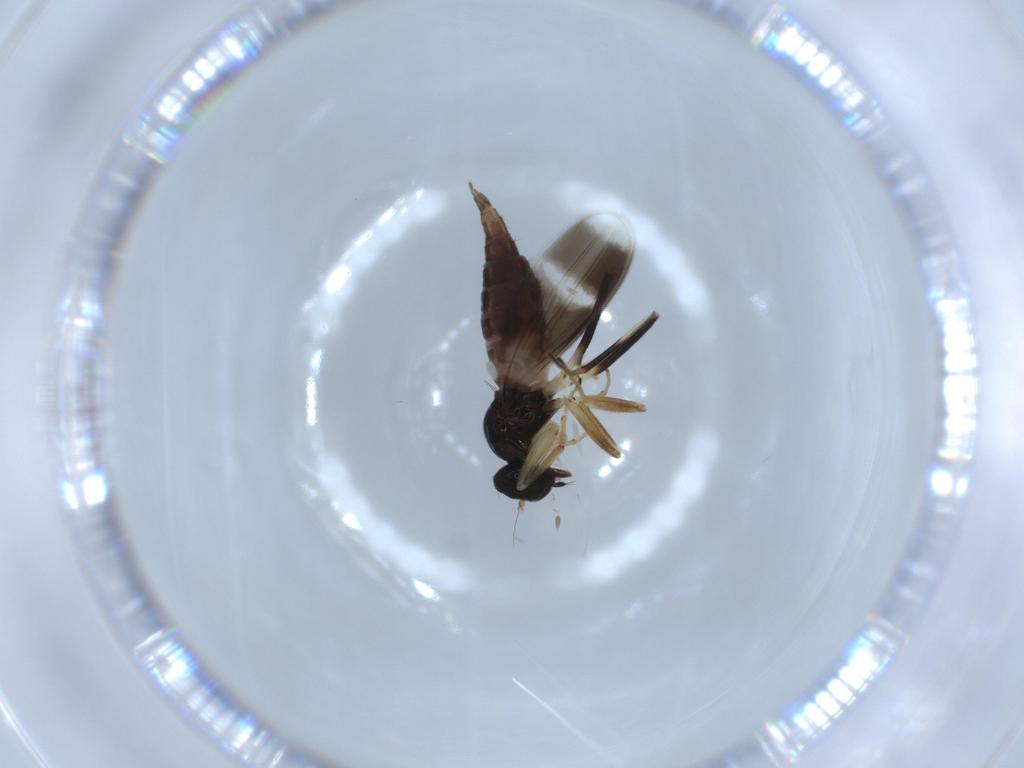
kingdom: Animalia
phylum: Arthropoda
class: Insecta
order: Diptera
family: Hybotidae
